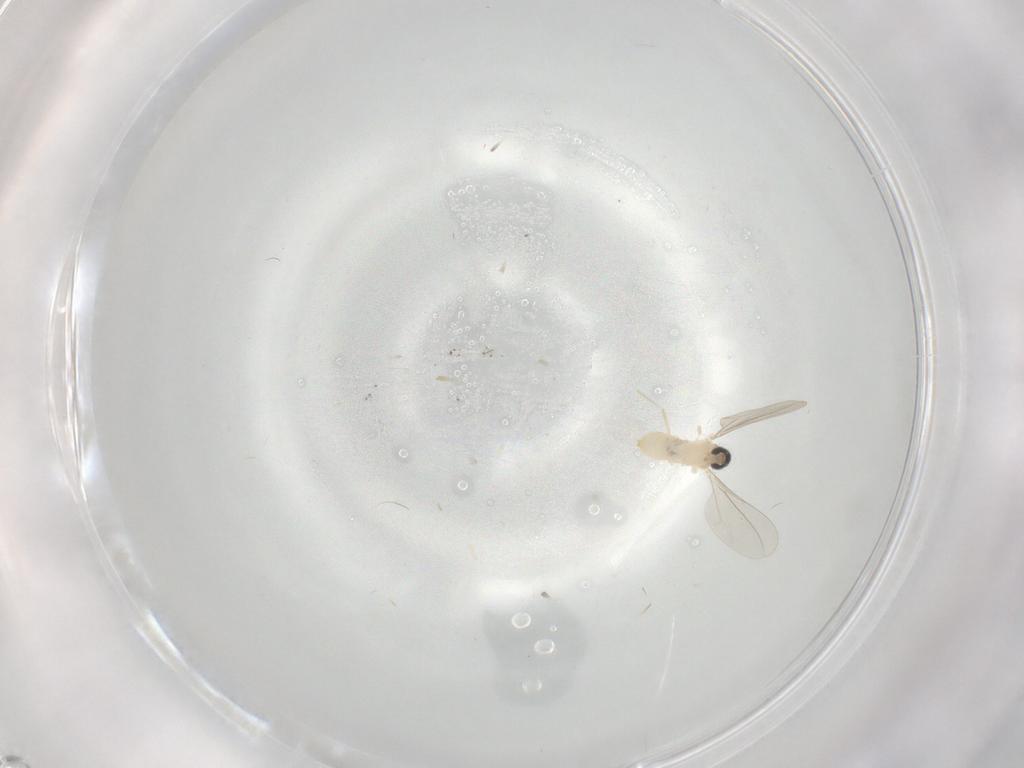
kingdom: Animalia
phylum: Arthropoda
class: Insecta
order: Diptera
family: Cecidomyiidae
